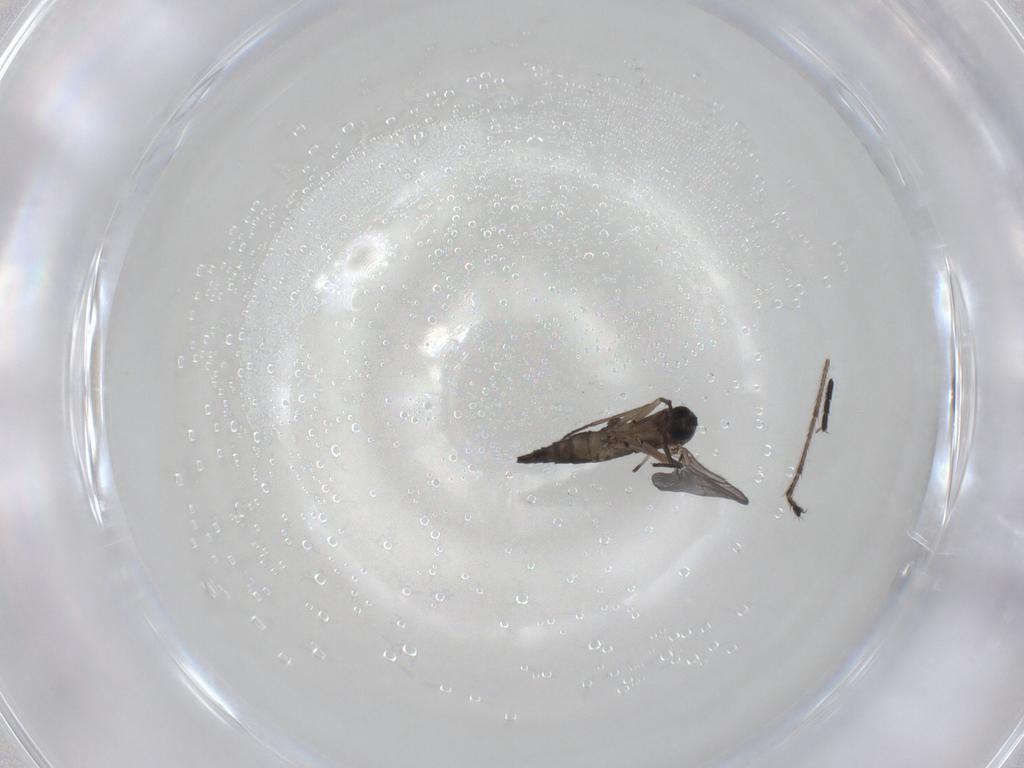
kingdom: Animalia
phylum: Arthropoda
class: Insecta
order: Diptera
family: Sciaridae
